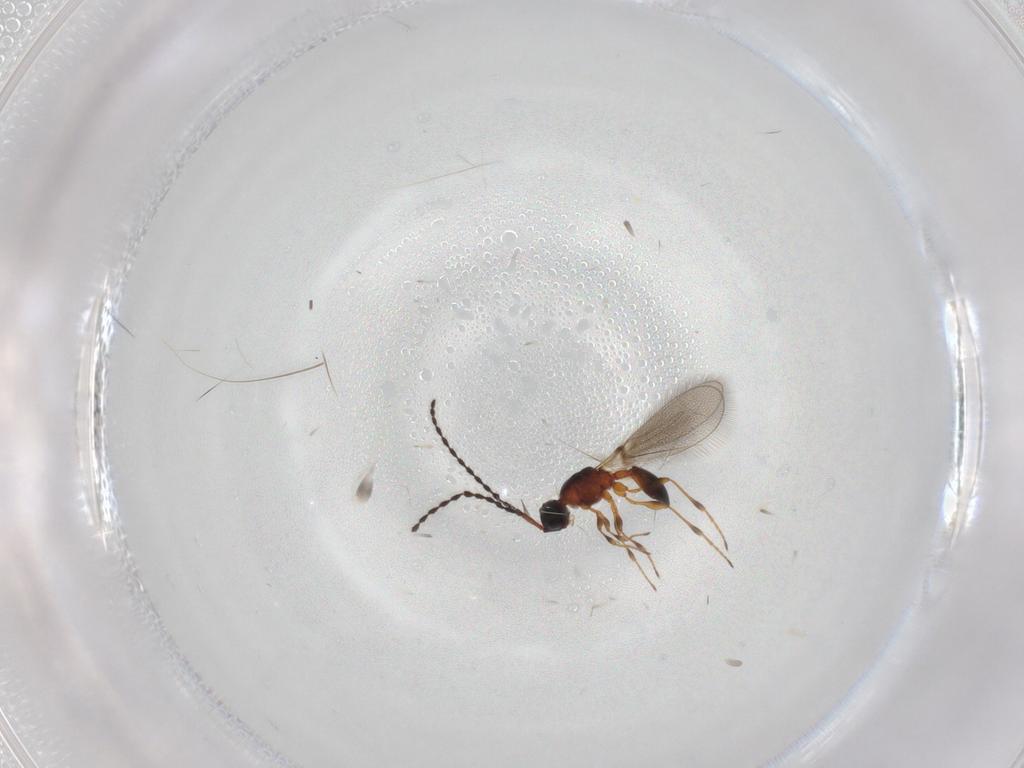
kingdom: Animalia
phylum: Arthropoda
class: Insecta
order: Hymenoptera
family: Diapriidae
